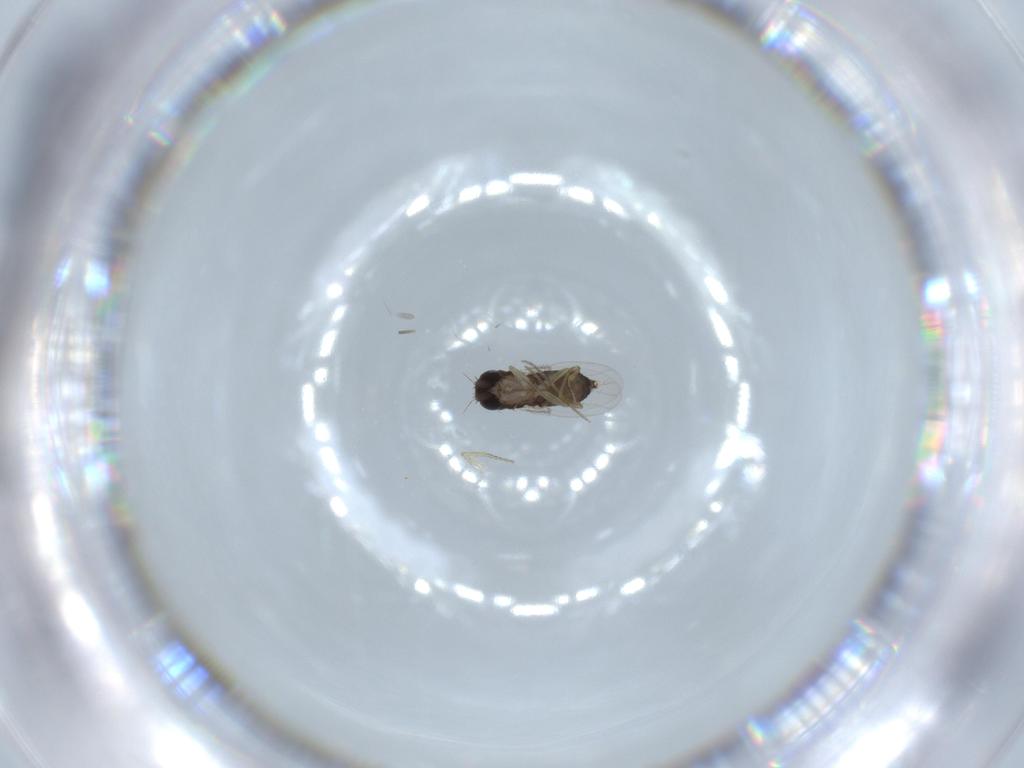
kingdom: Animalia
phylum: Arthropoda
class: Insecta
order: Diptera
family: Phoridae
